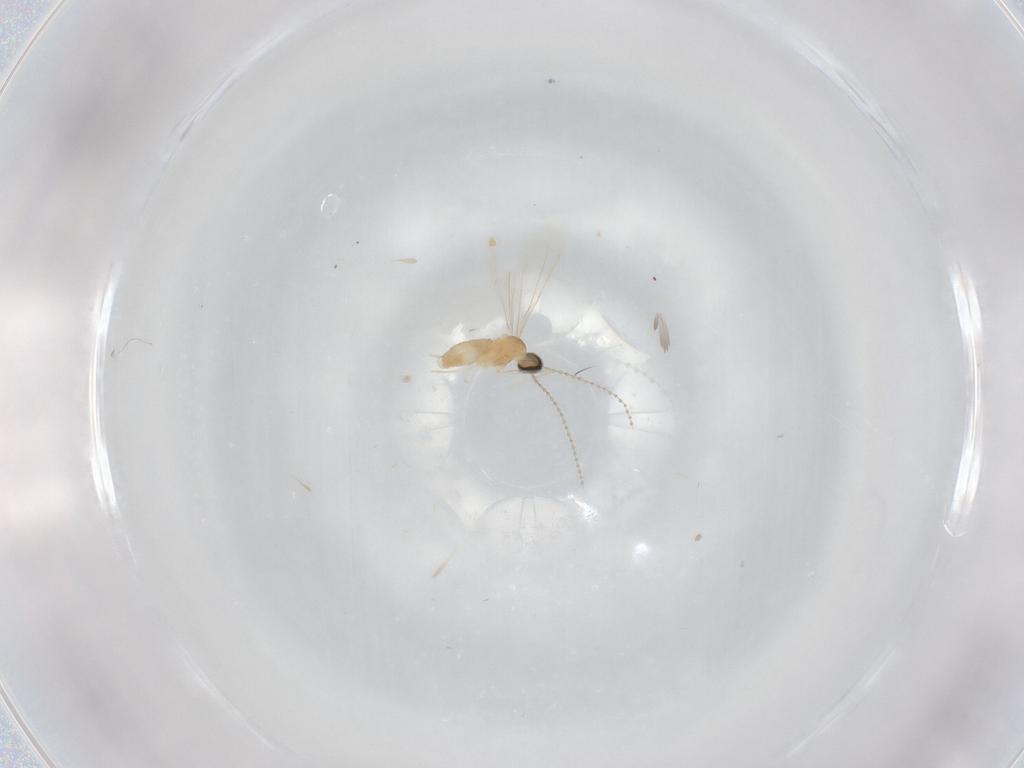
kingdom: Animalia
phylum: Arthropoda
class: Insecta
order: Diptera
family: Cecidomyiidae
